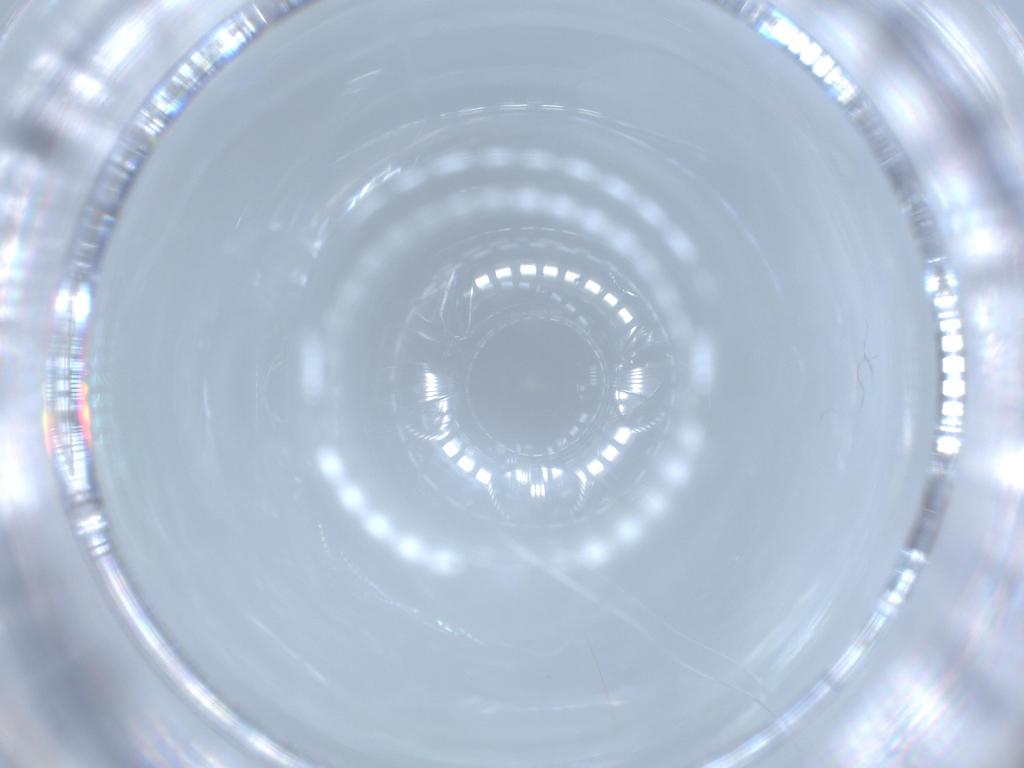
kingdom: Animalia
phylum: Arthropoda
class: Insecta
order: Hymenoptera
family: Mymaridae
